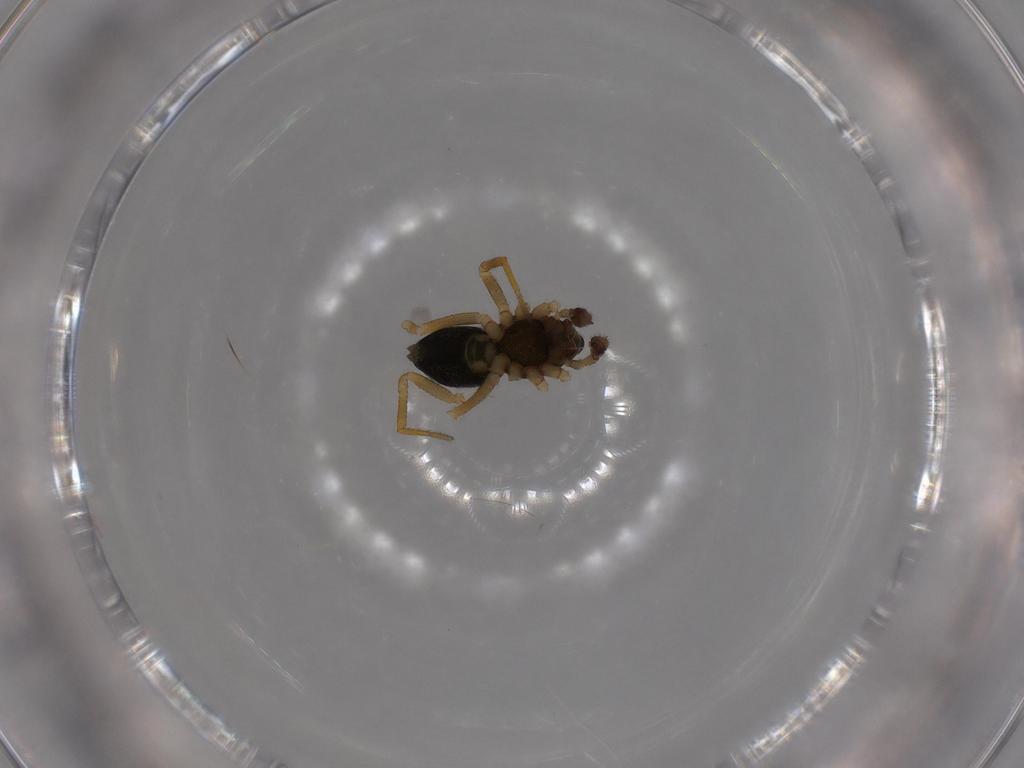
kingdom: Animalia
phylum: Arthropoda
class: Arachnida
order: Araneae
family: Linyphiidae
